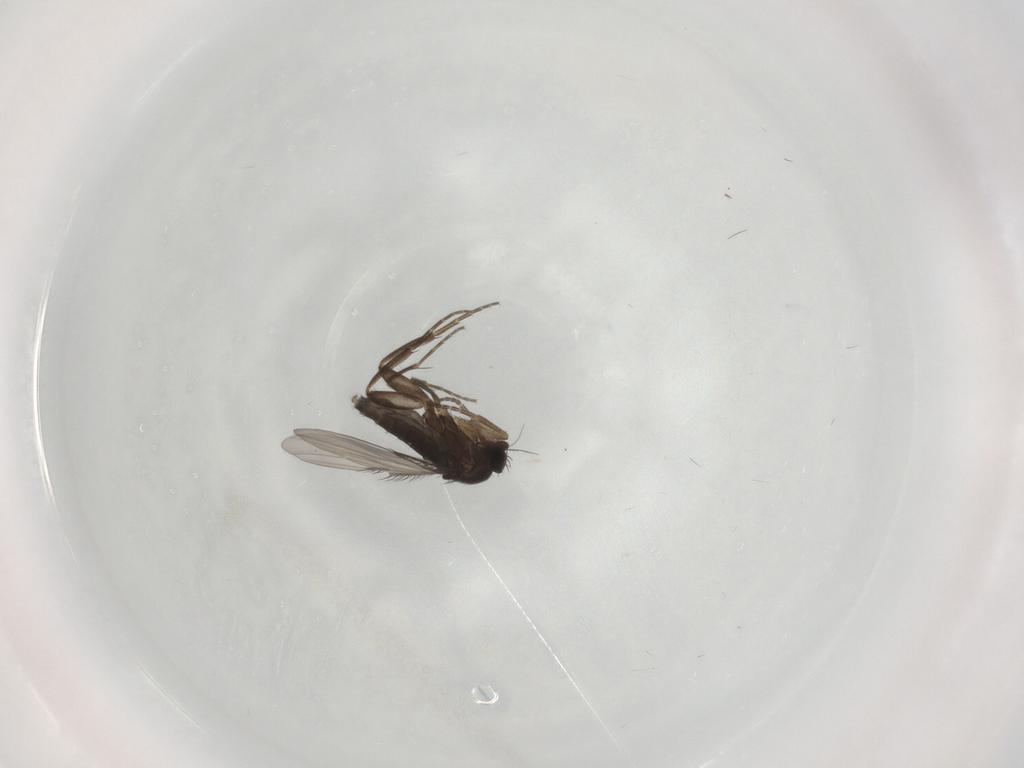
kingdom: Animalia
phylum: Arthropoda
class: Insecta
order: Diptera
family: Phoridae
